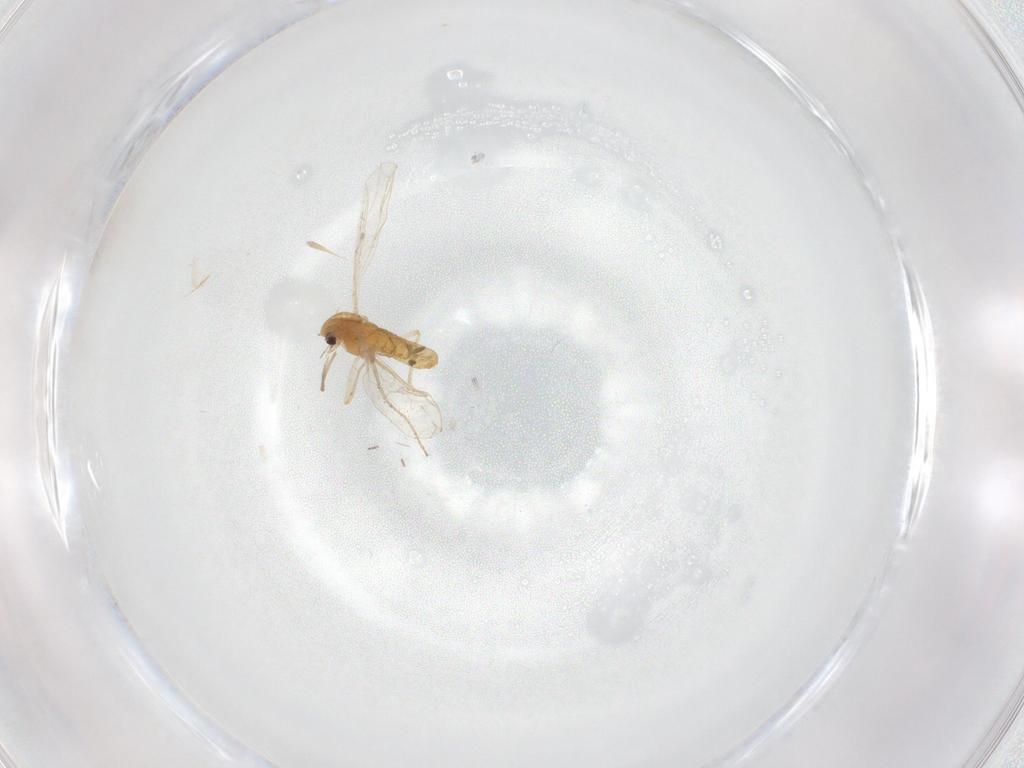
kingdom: Animalia
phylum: Arthropoda
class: Insecta
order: Diptera
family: Chironomidae
